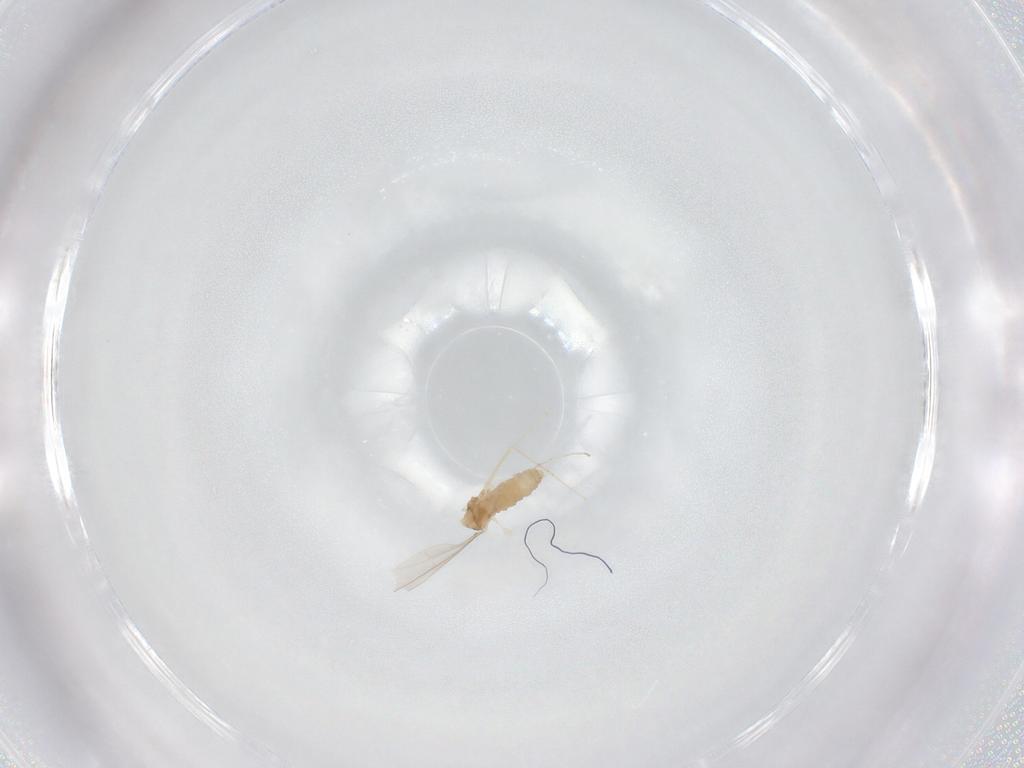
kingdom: Animalia
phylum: Arthropoda
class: Insecta
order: Diptera
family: Cecidomyiidae
